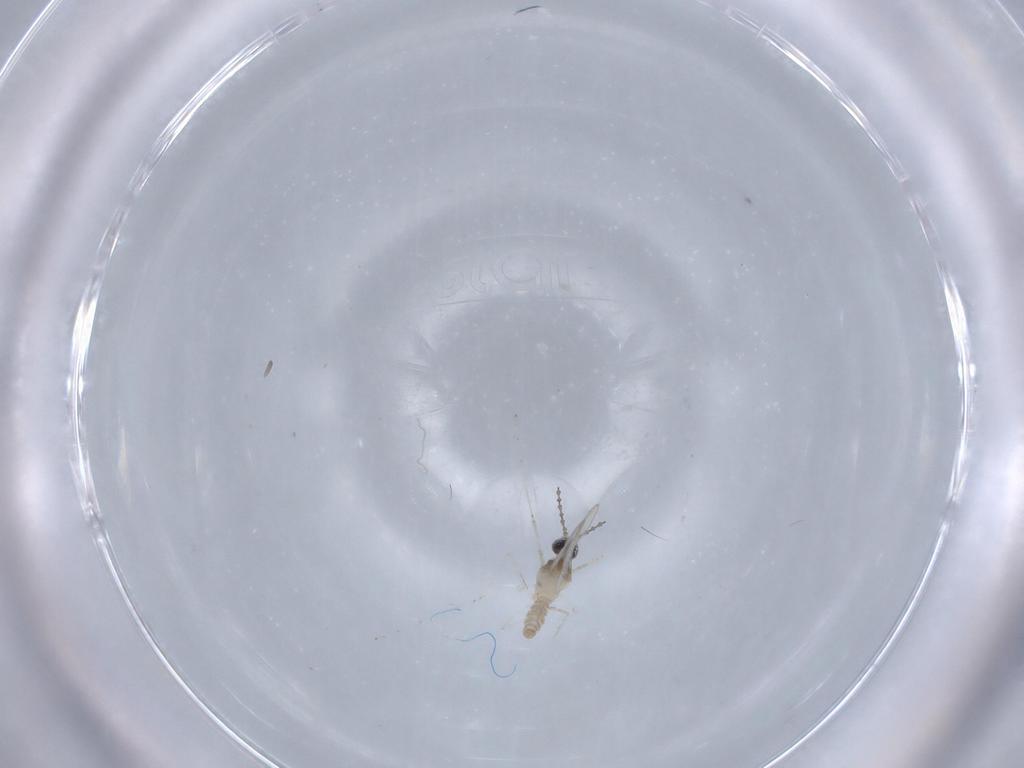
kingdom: Animalia
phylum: Arthropoda
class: Insecta
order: Diptera
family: Cecidomyiidae
